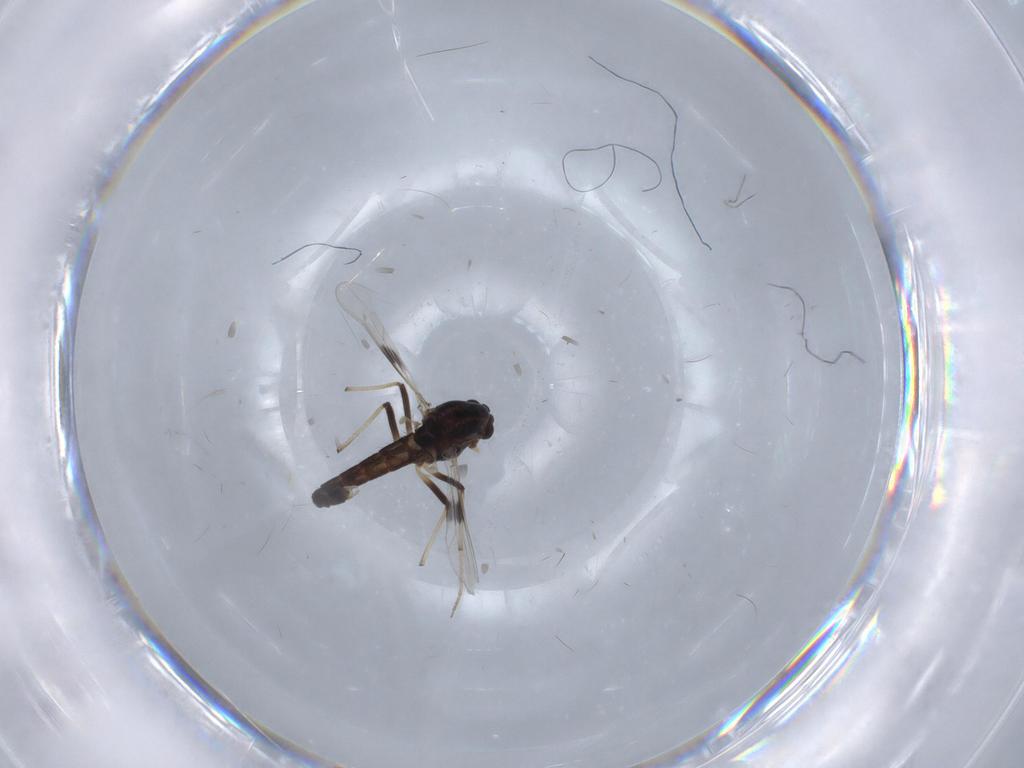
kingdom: Animalia
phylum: Arthropoda
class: Insecta
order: Diptera
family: Chironomidae
